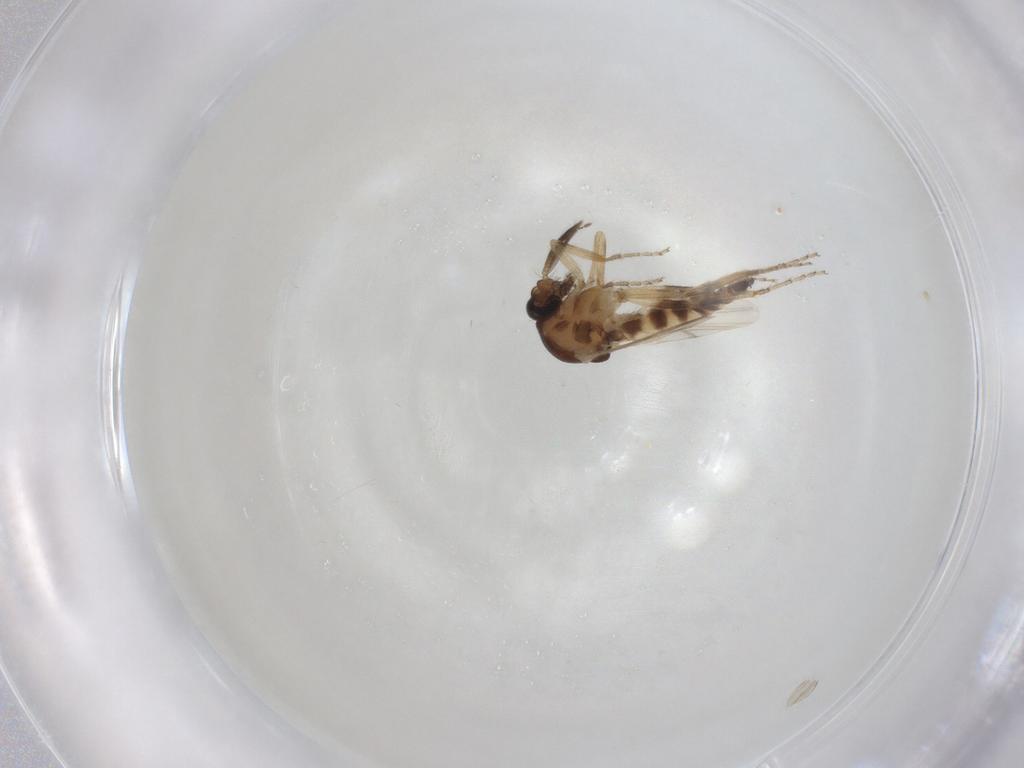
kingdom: Animalia
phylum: Arthropoda
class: Insecta
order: Diptera
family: Ceratopogonidae
